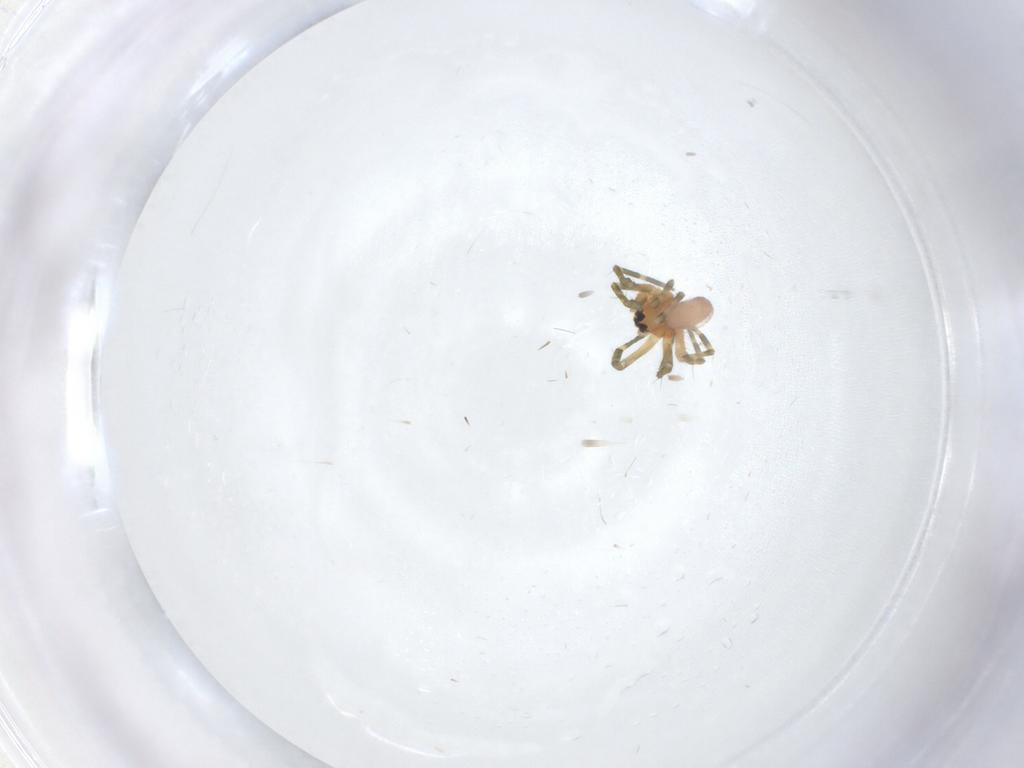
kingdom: Animalia
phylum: Arthropoda
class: Arachnida
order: Araneae
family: Linyphiidae
